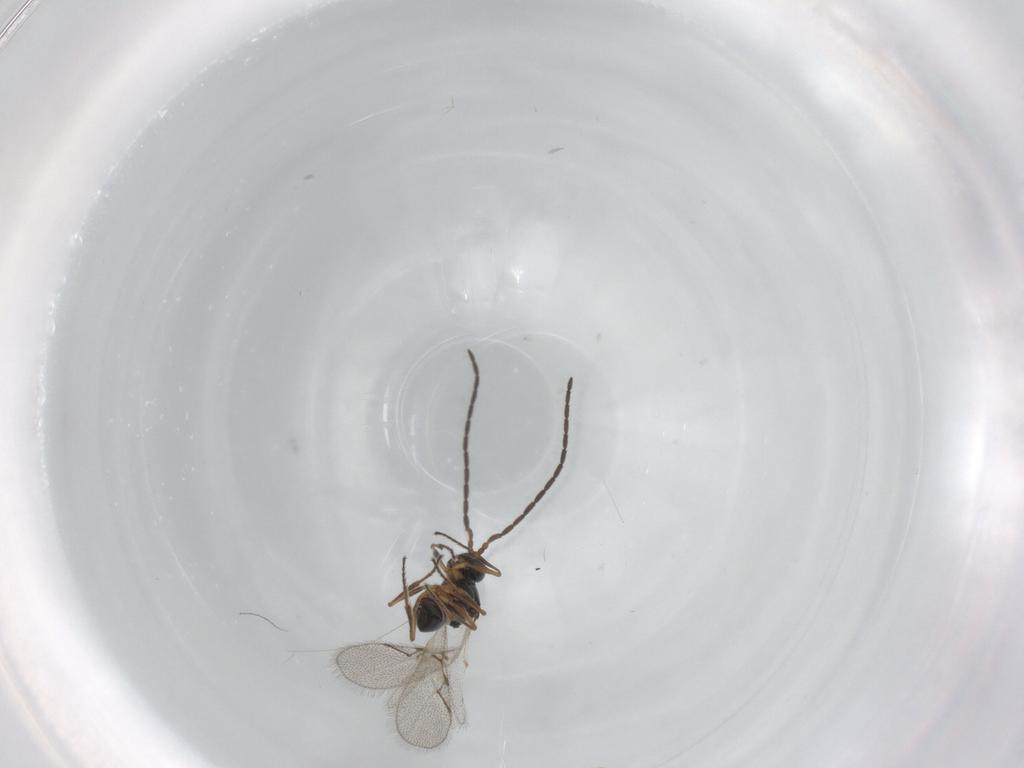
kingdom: Animalia
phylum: Arthropoda
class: Insecta
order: Hymenoptera
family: Figitidae
